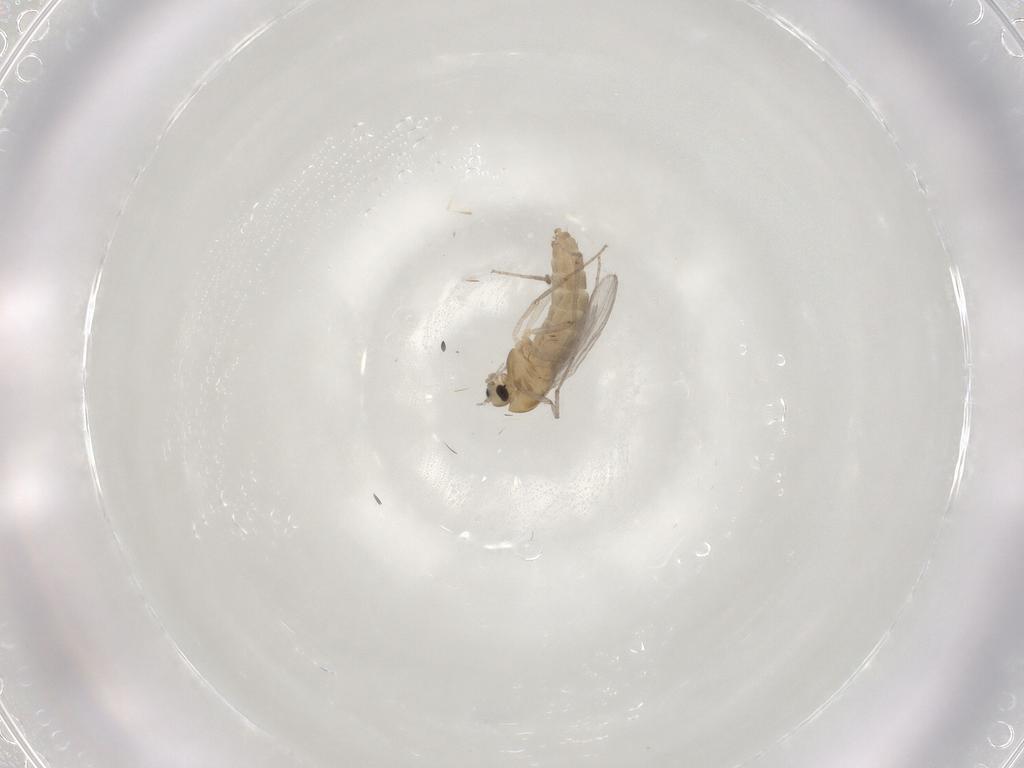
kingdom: Animalia
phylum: Arthropoda
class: Insecta
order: Diptera
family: Chironomidae
